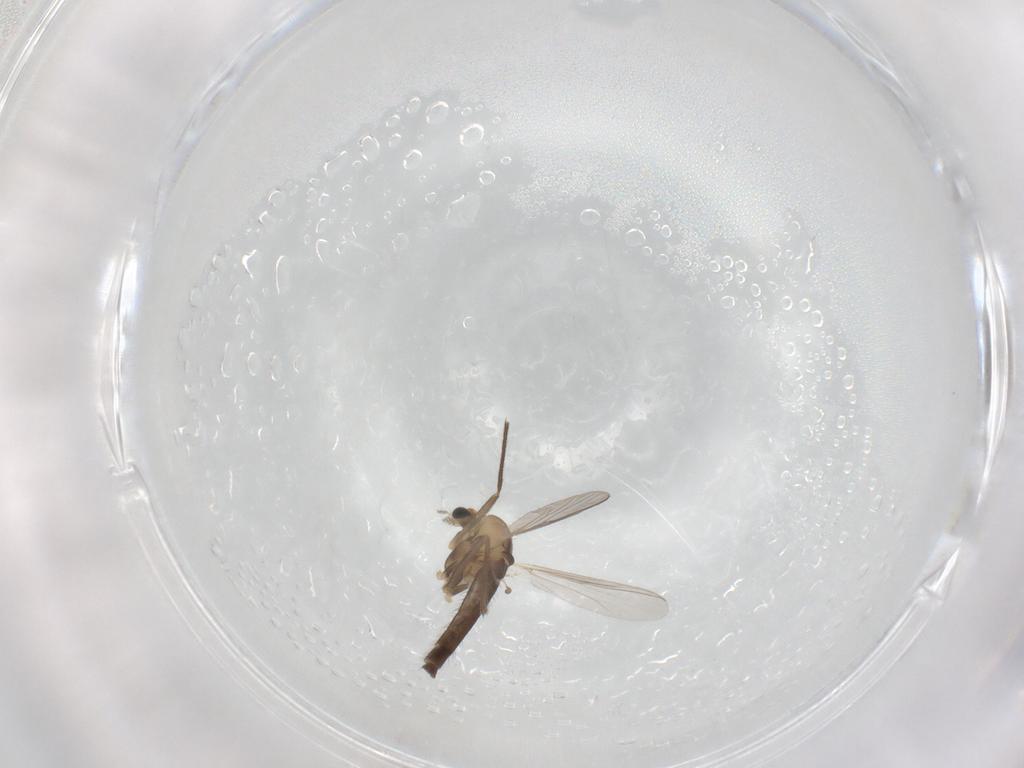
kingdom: Animalia
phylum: Arthropoda
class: Insecta
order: Diptera
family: Chironomidae
